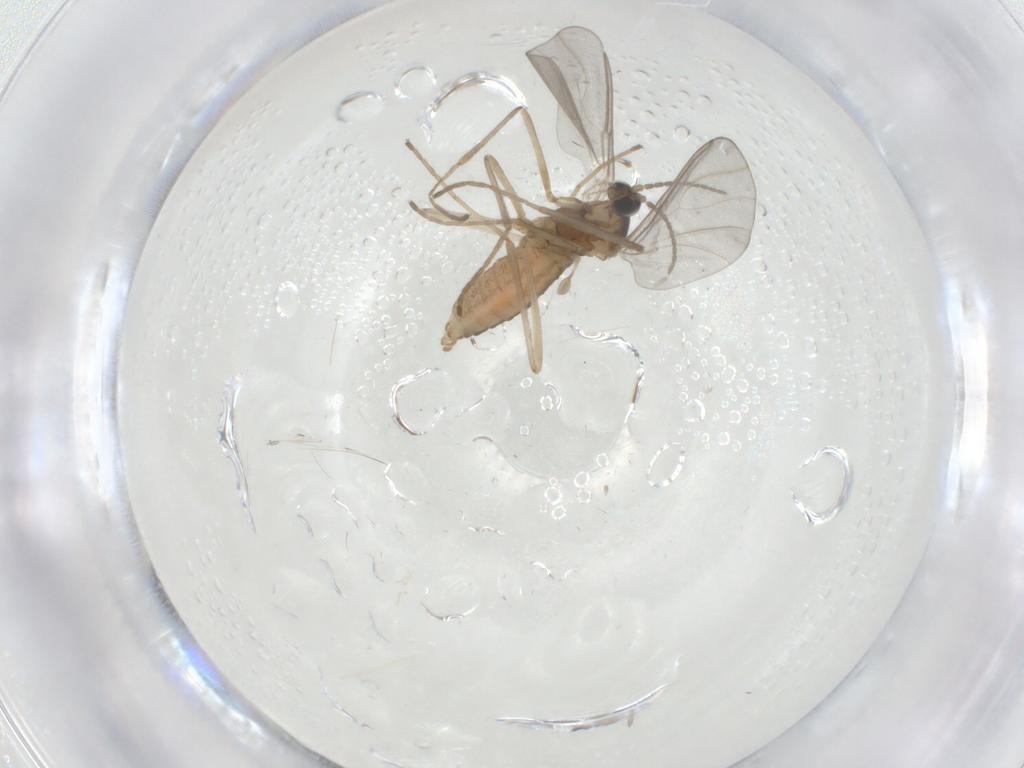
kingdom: Animalia
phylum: Arthropoda
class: Insecta
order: Diptera
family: Cecidomyiidae
